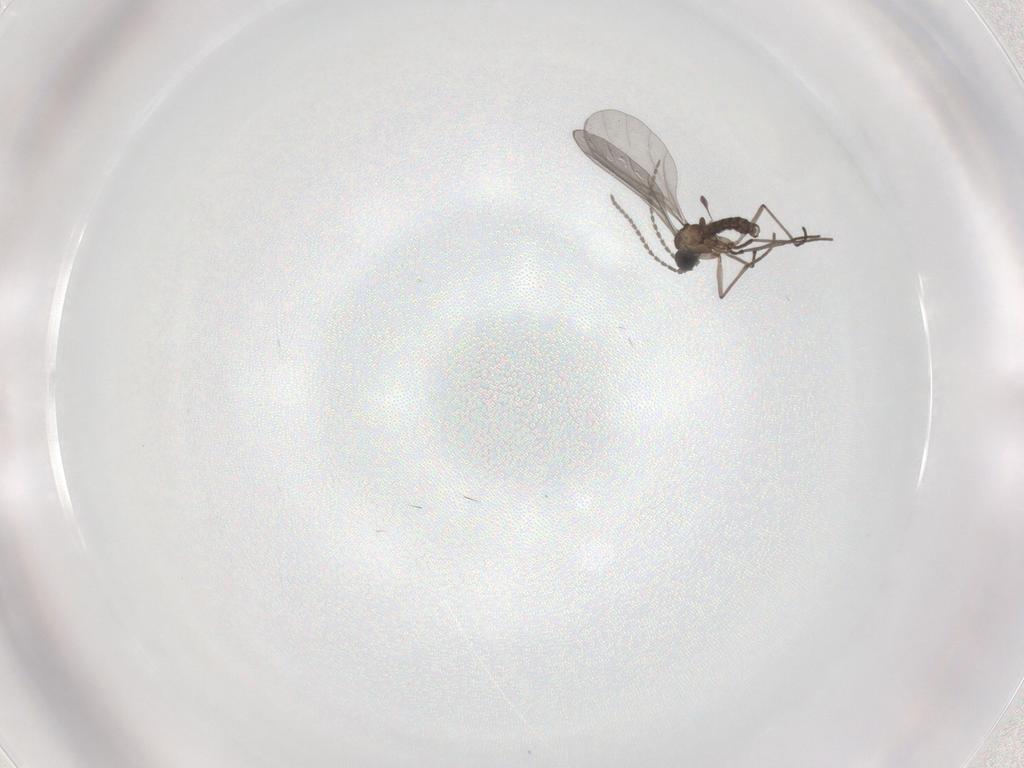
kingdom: Animalia
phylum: Arthropoda
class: Insecta
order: Diptera
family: Sciaridae
